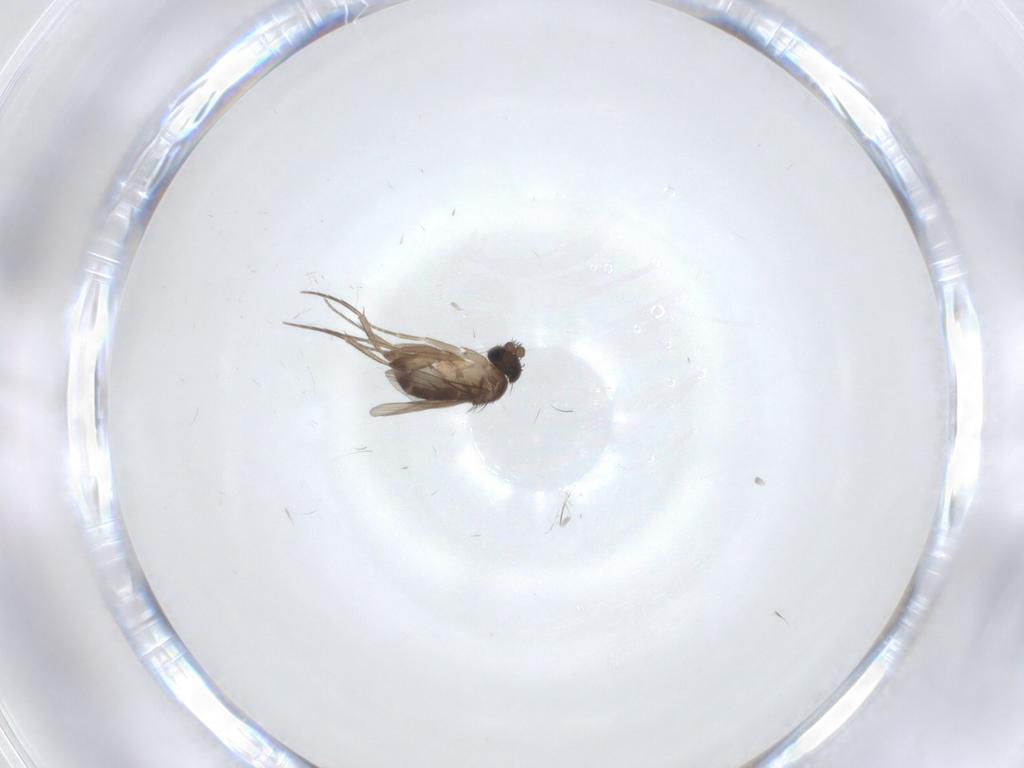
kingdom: Animalia
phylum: Arthropoda
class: Insecta
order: Diptera
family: Phoridae
